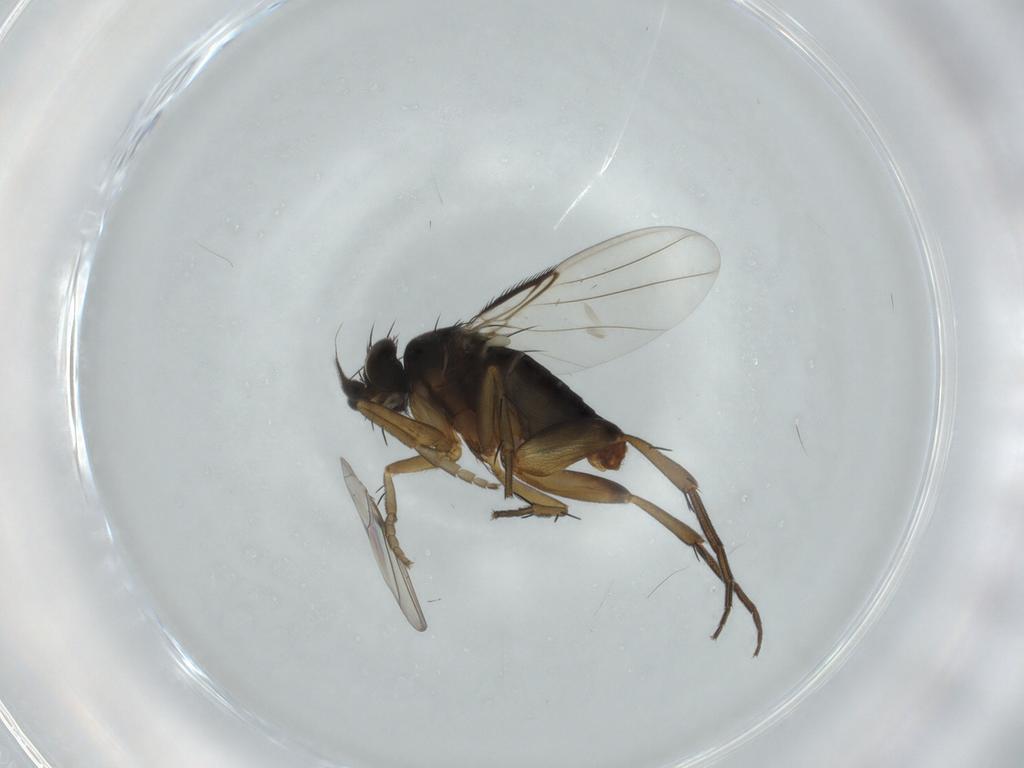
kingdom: Animalia
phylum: Arthropoda
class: Insecta
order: Diptera
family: Phoridae
